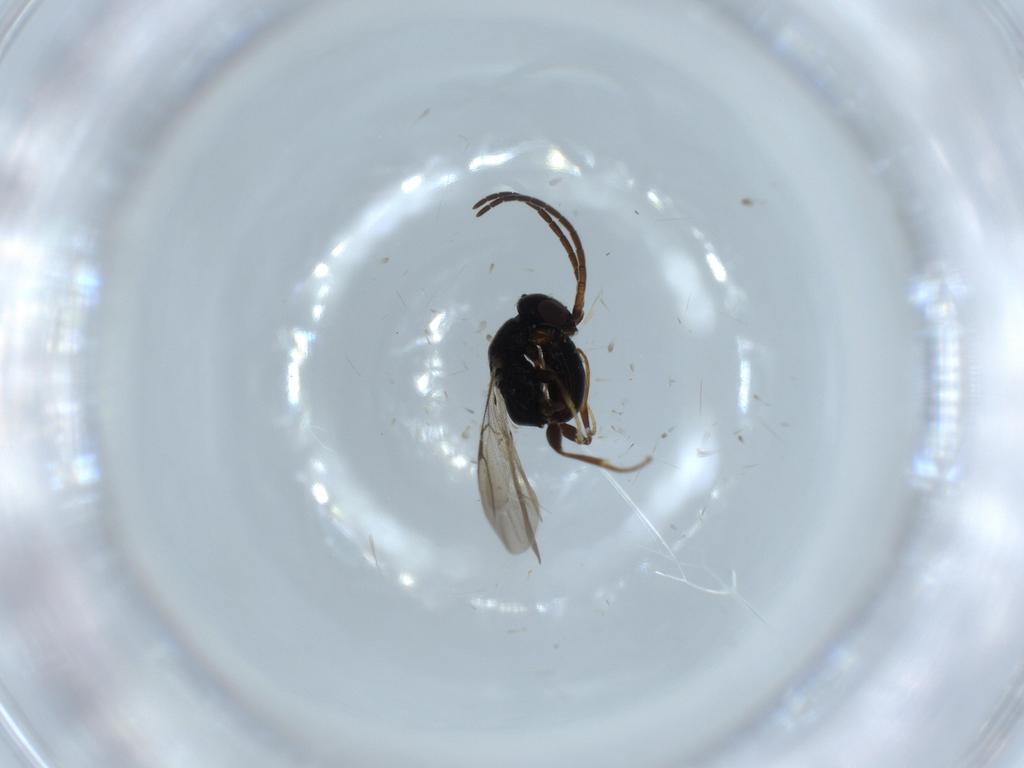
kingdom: Animalia
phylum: Arthropoda
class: Insecta
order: Hymenoptera
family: Bethylidae
